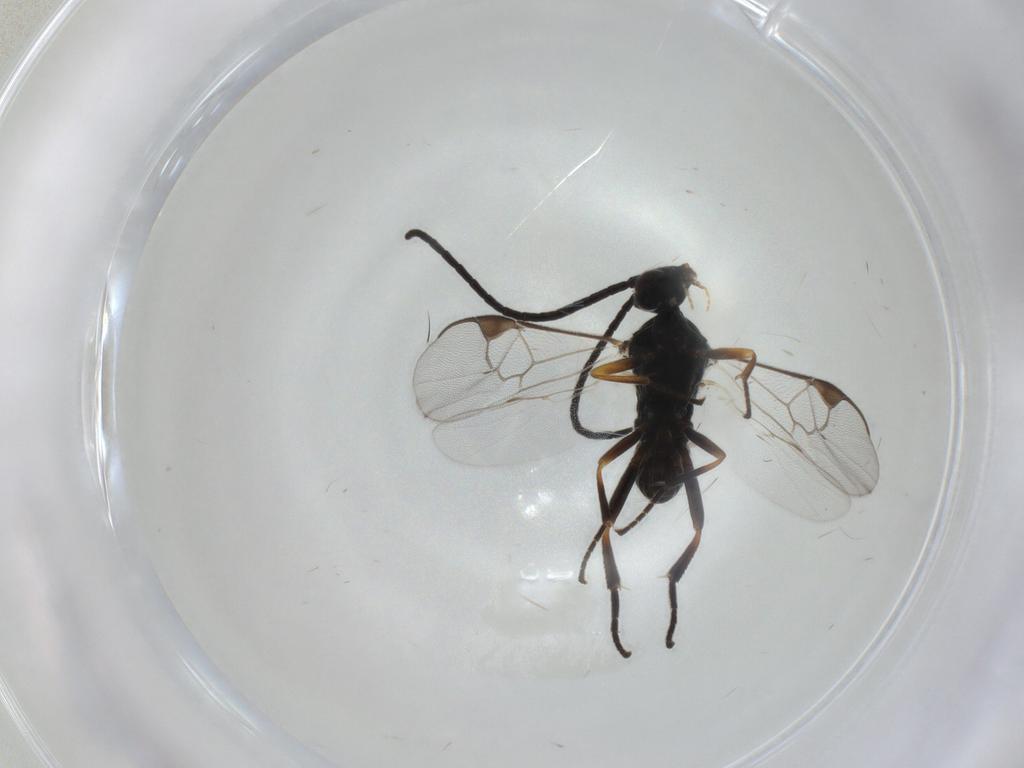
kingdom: Animalia
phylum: Arthropoda
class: Insecta
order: Hymenoptera
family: Braconidae
